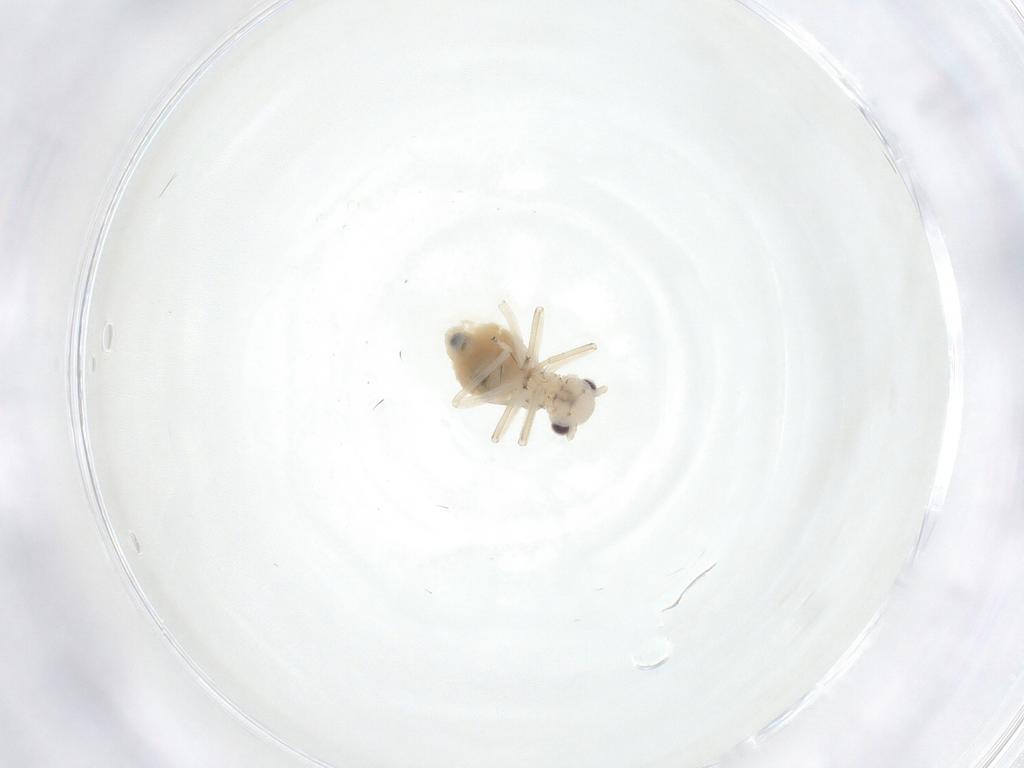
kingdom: Animalia
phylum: Arthropoda
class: Insecta
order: Psocodea
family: Caeciliusidae
